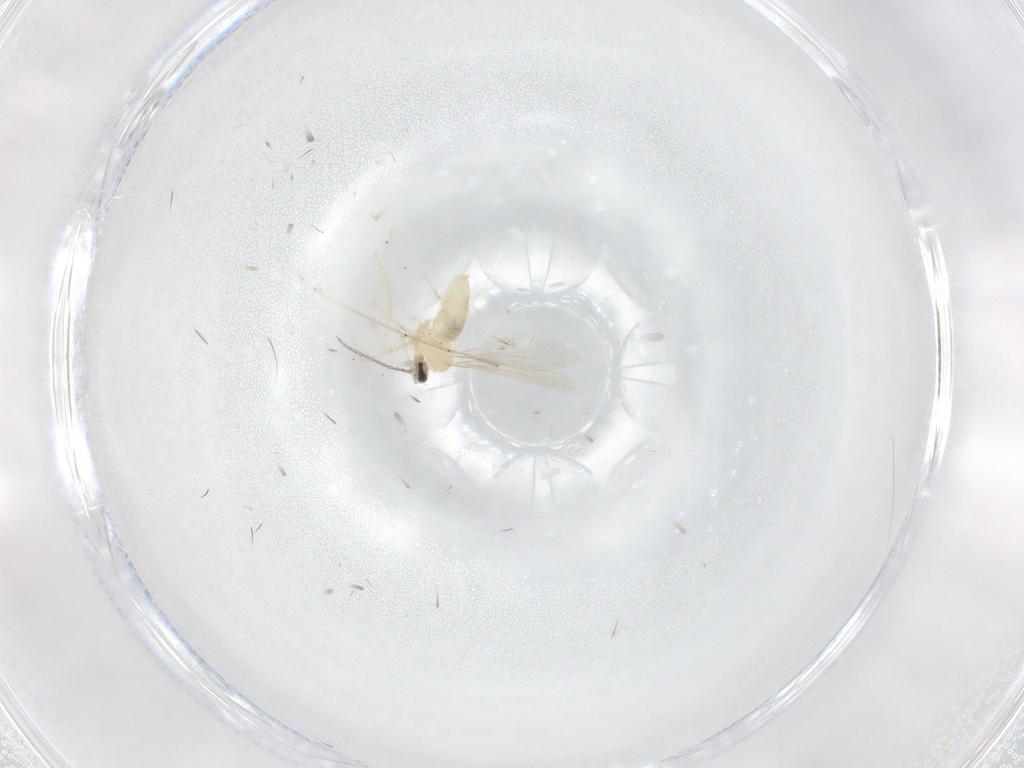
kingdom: Animalia
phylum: Arthropoda
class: Insecta
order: Diptera
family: Cecidomyiidae
